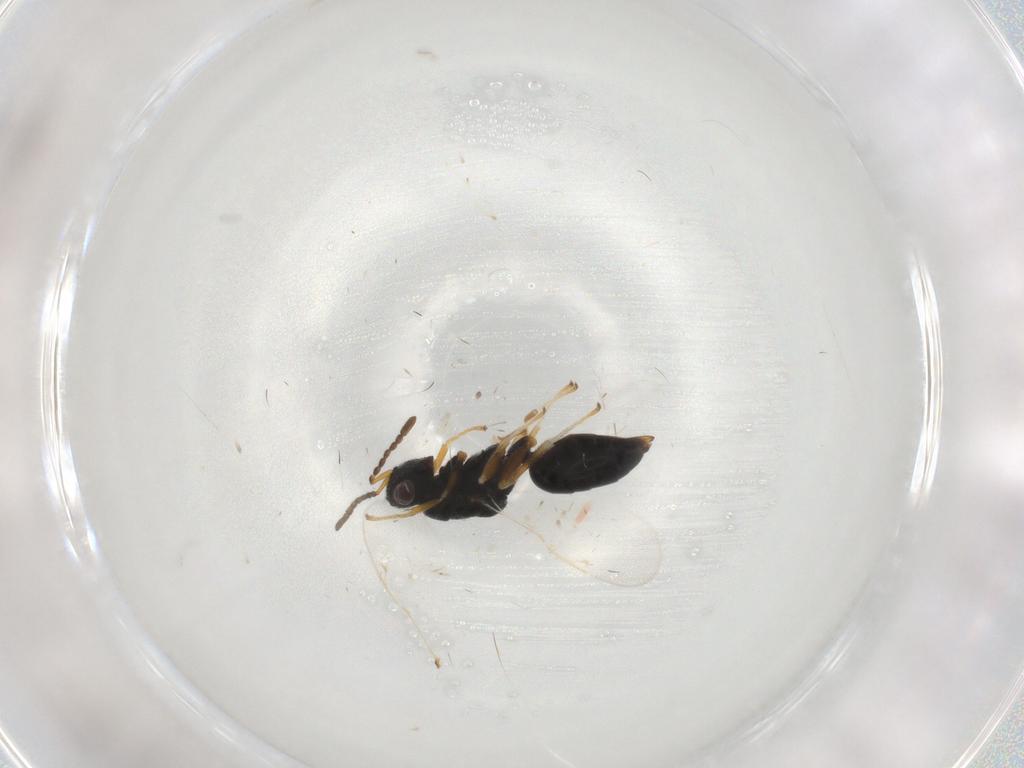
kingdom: Animalia
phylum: Arthropoda
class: Insecta
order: Hymenoptera
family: Eurytomidae
